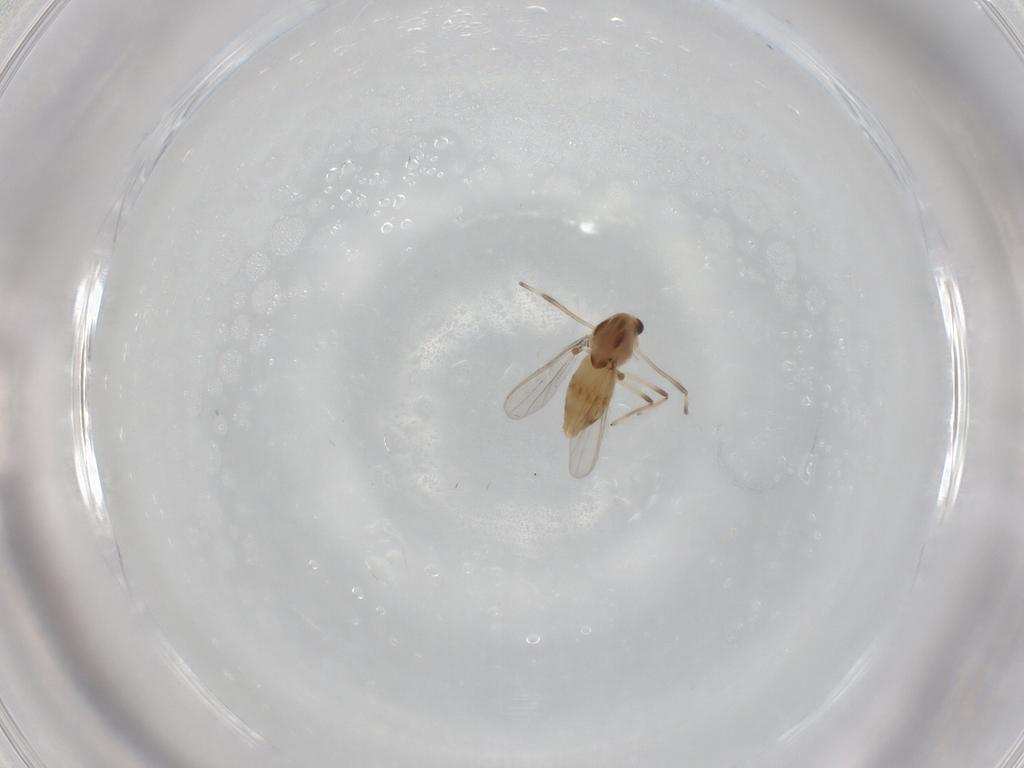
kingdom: Animalia
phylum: Arthropoda
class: Insecta
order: Diptera
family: Chironomidae
